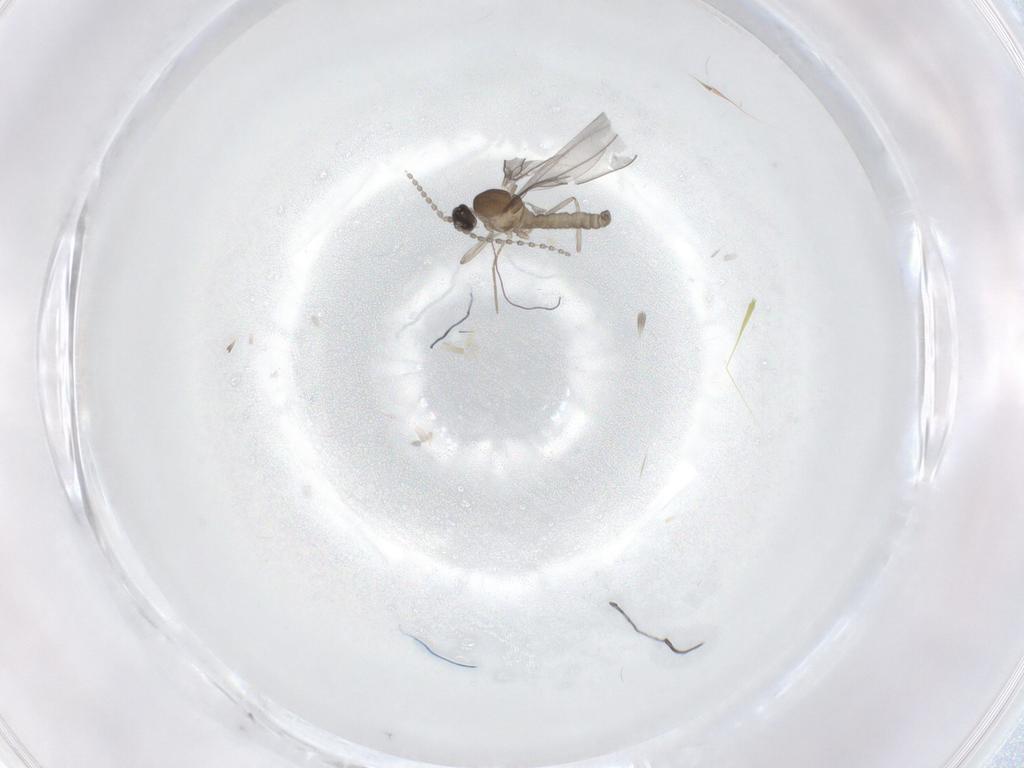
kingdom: Animalia
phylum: Arthropoda
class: Insecta
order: Diptera
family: Cecidomyiidae
